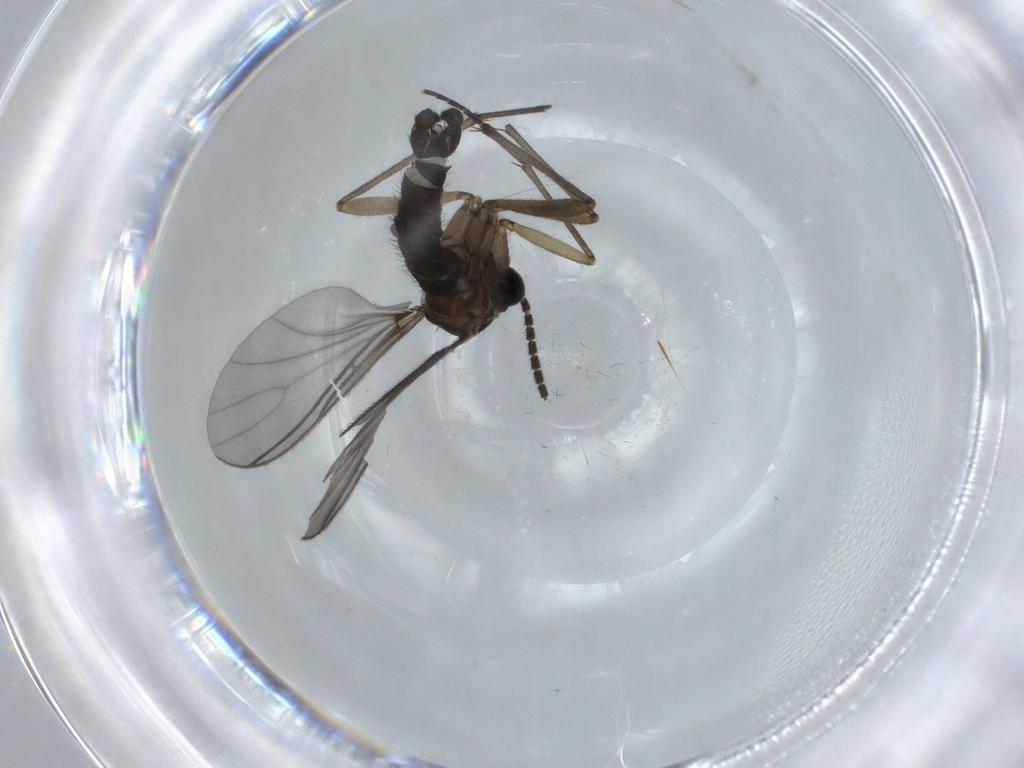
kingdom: Animalia
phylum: Arthropoda
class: Insecta
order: Diptera
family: Sciaridae
